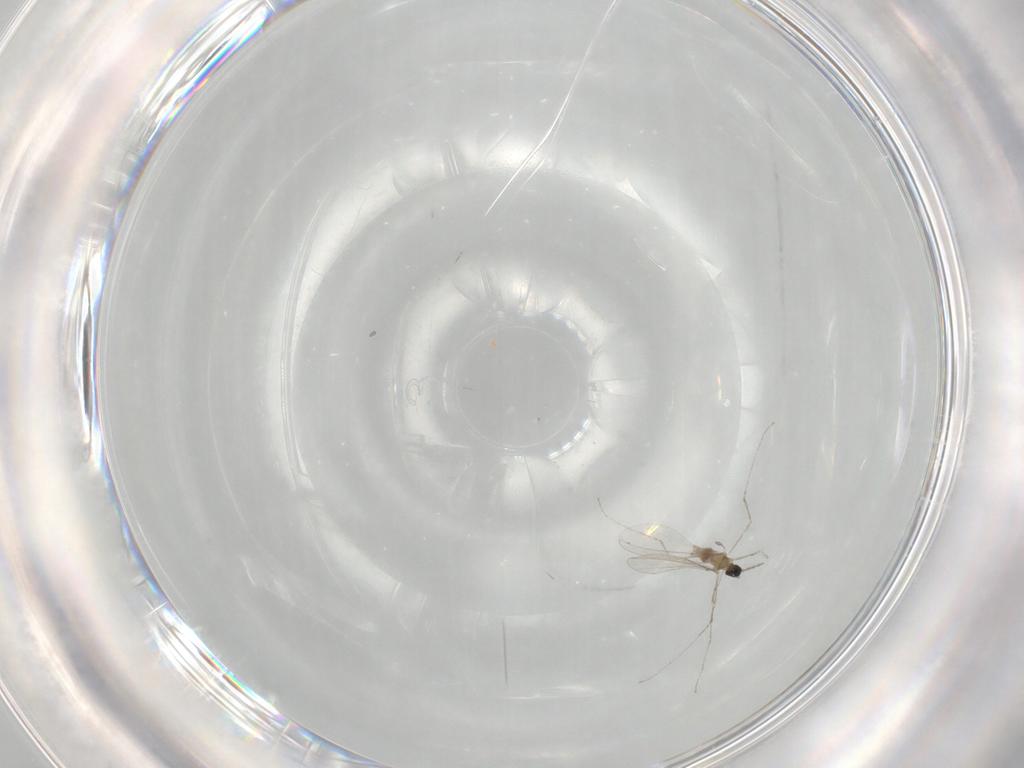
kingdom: Animalia
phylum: Arthropoda
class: Insecta
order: Diptera
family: Cecidomyiidae
